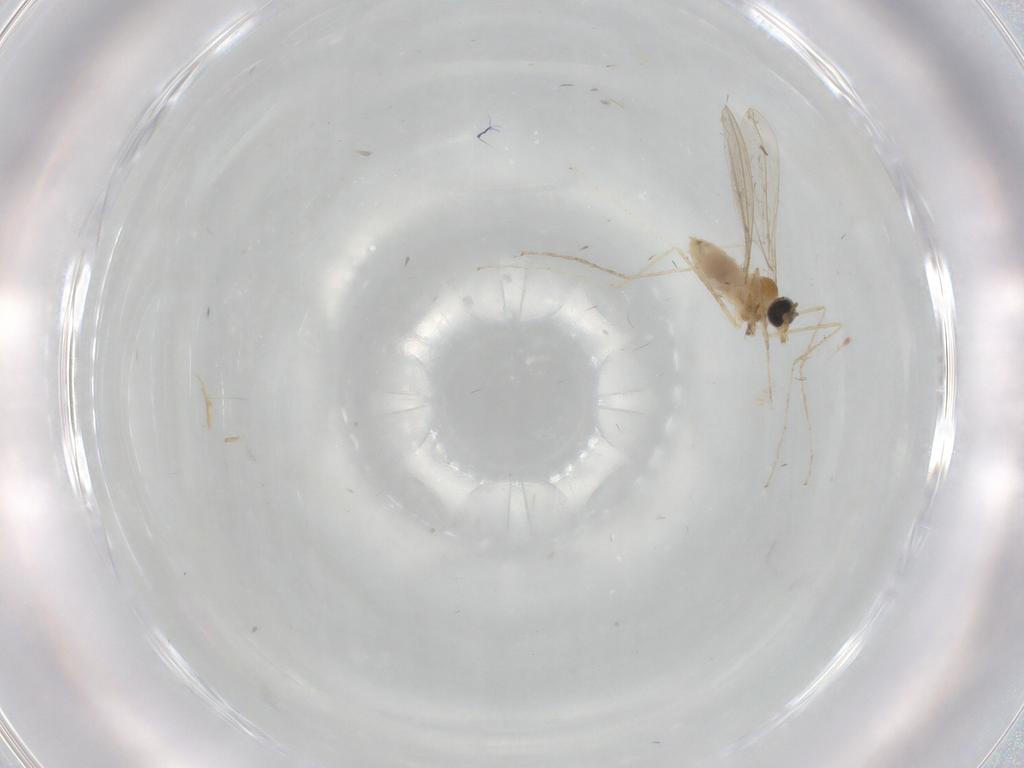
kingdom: Animalia
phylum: Arthropoda
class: Insecta
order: Diptera
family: Cecidomyiidae
